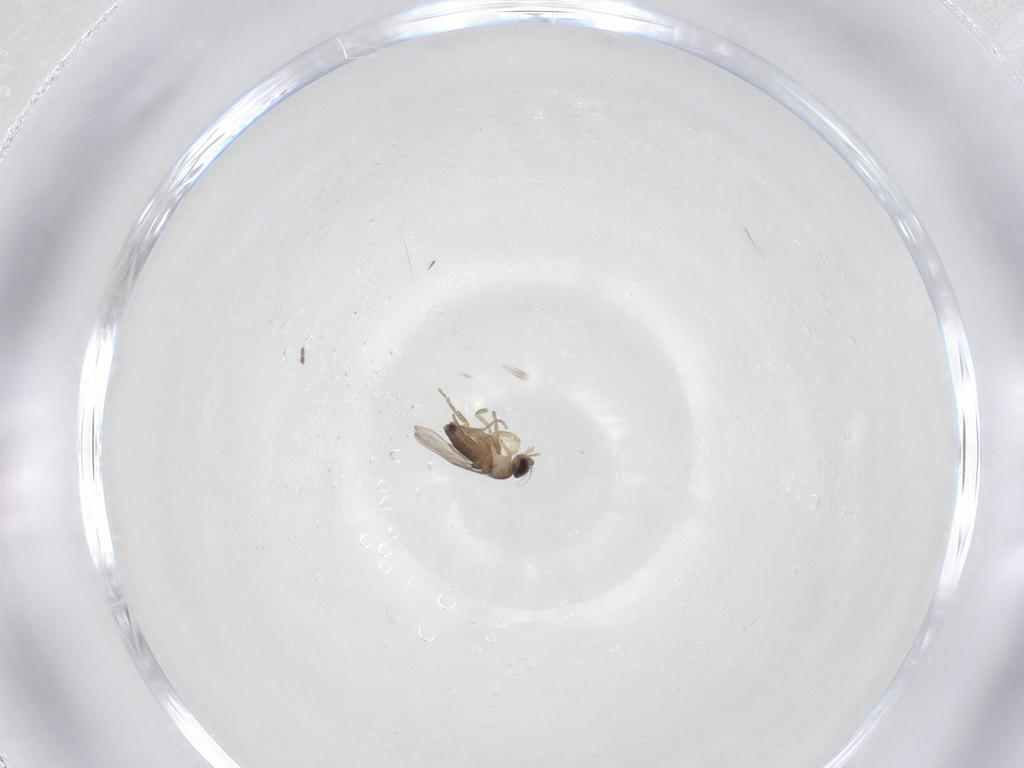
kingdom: Animalia
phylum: Arthropoda
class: Insecta
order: Diptera
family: Phoridae
